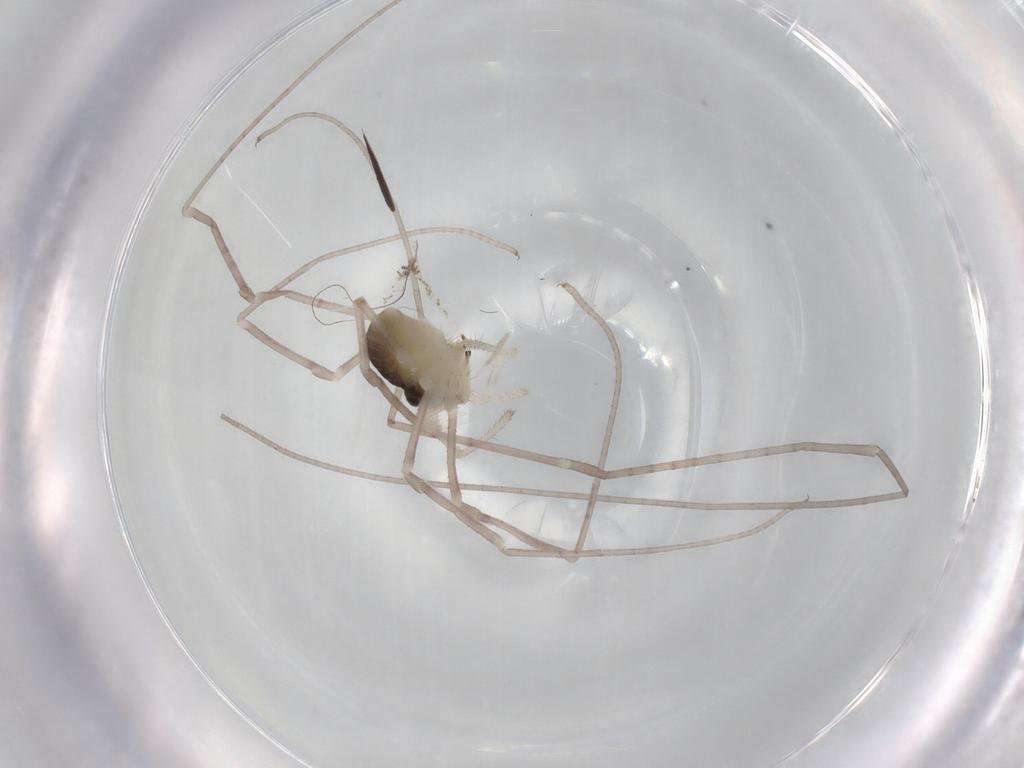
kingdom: Animalia
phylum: Arthropoda
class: Arachnida
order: Opiliones
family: Sclerosomatidae
